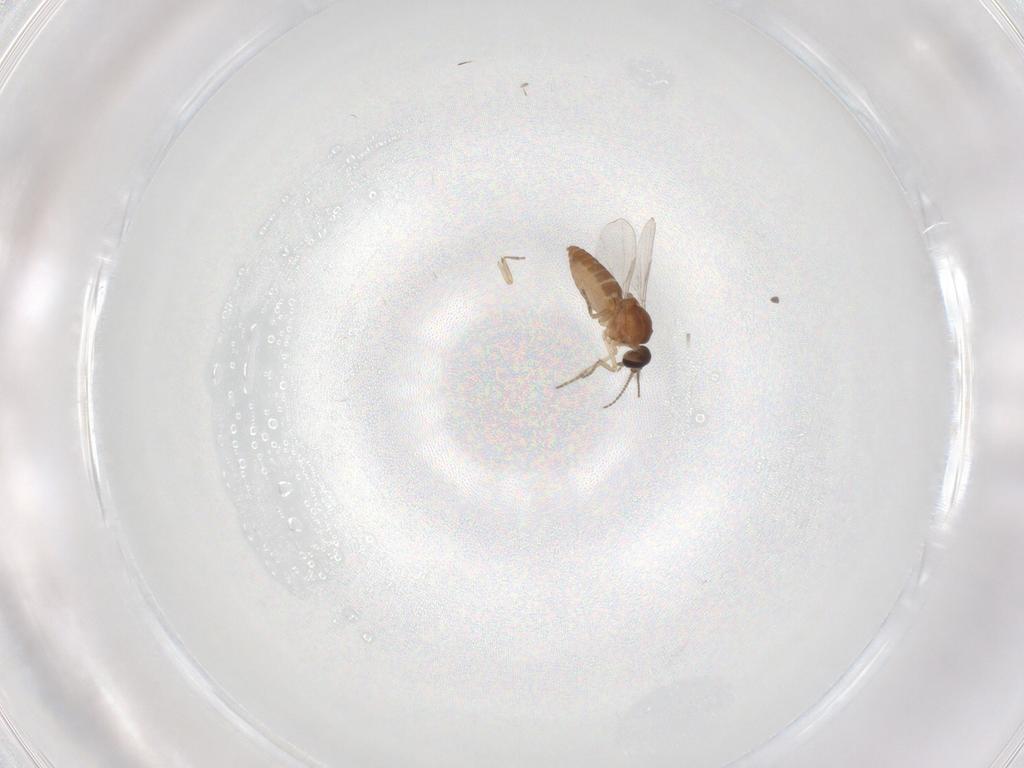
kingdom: Animalia
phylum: Arthropoda
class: Insecta
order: Diptera
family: Ceratopogonidae
